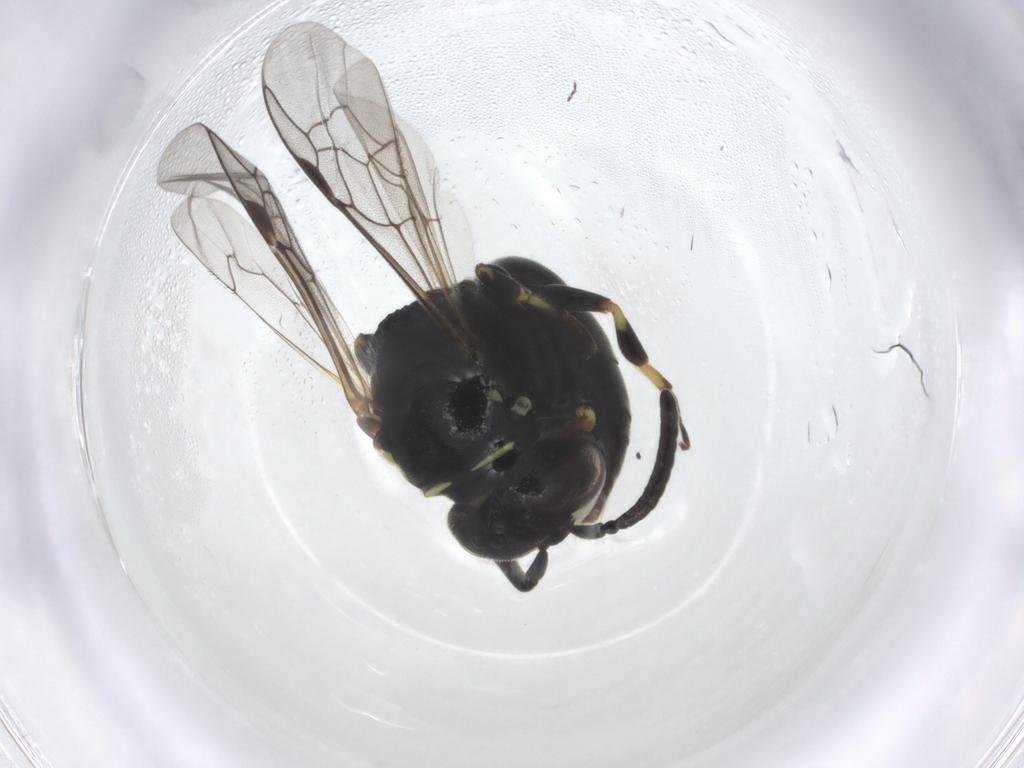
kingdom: Animalia
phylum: Arthropoda
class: Insecta
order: Hymenoptera
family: Colletidae
